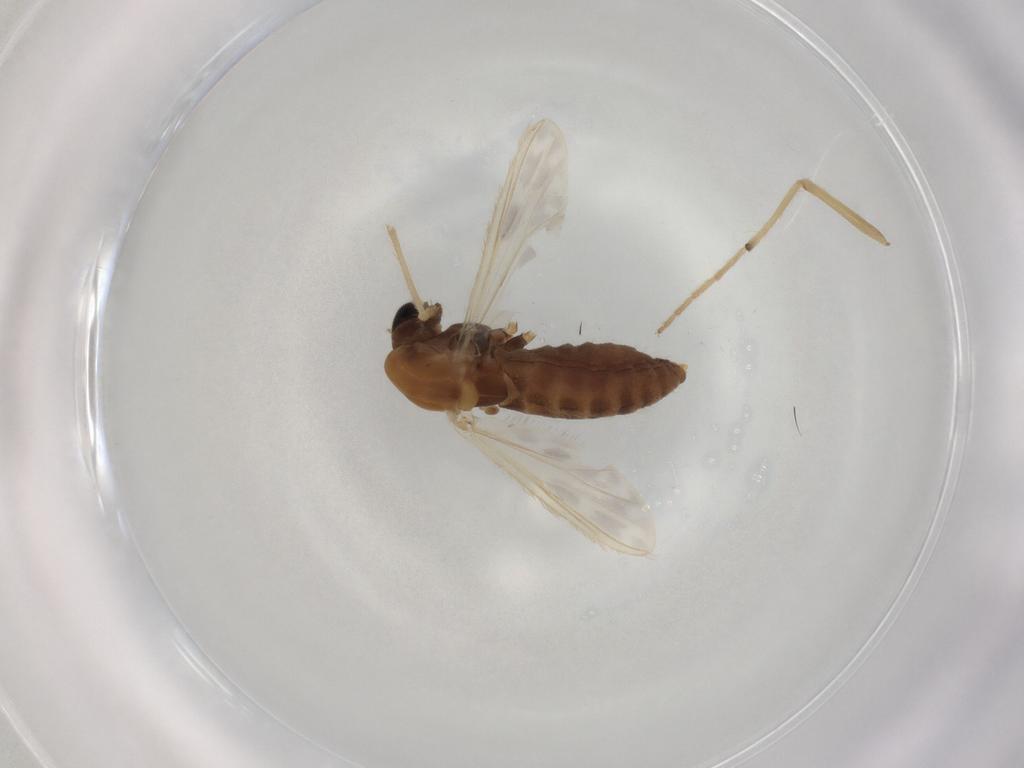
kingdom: Animalia
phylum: Arthropoda
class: Insecta
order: Diptera
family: Chironomidae
